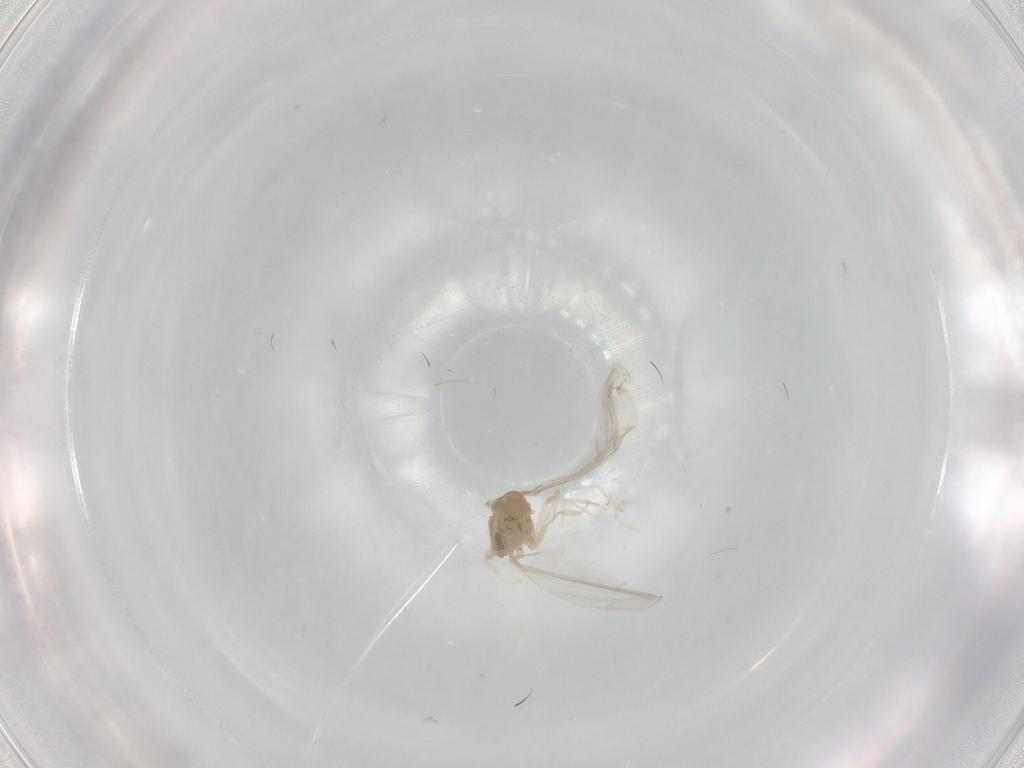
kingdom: Animalia
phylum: Arthropoda
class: Insecta
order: Diptera
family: Cecidomyiidae
